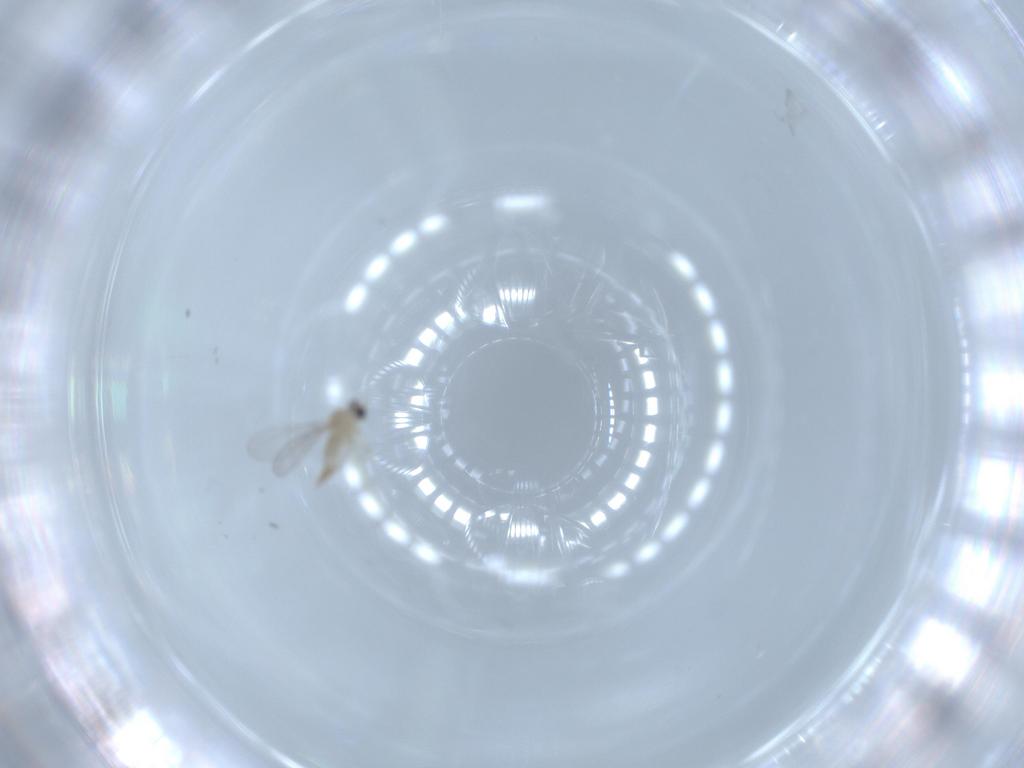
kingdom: Animalia
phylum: Arthropoda
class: Insecta
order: Diptera
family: Cecidomyiidae
